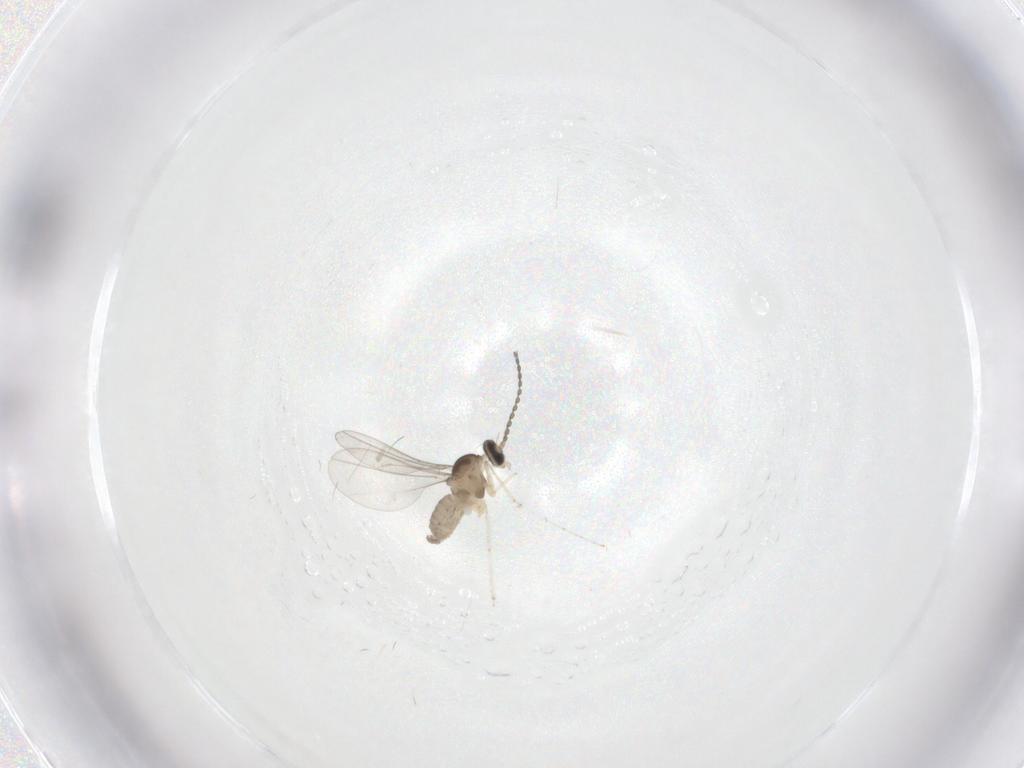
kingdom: Animalia
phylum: Arthropoda
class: Insecta
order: Diptera
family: Cecidomyiidae
